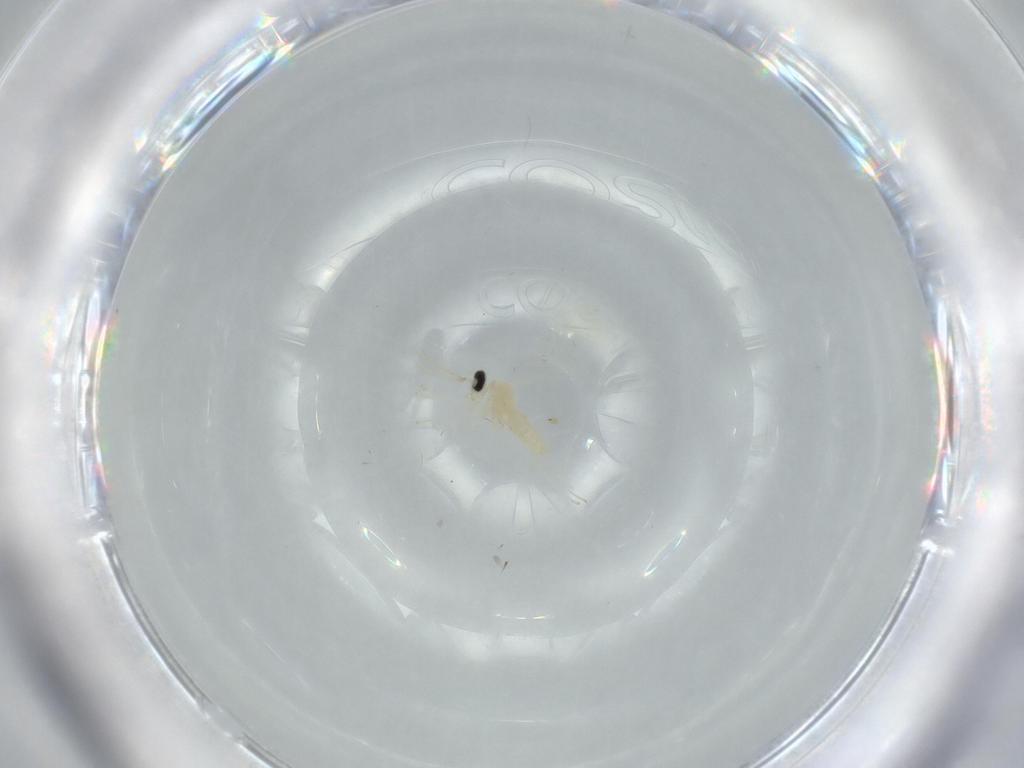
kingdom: Animalia
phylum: Arthropoda
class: Insecta
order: Diptera
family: Cecidomyiidae
